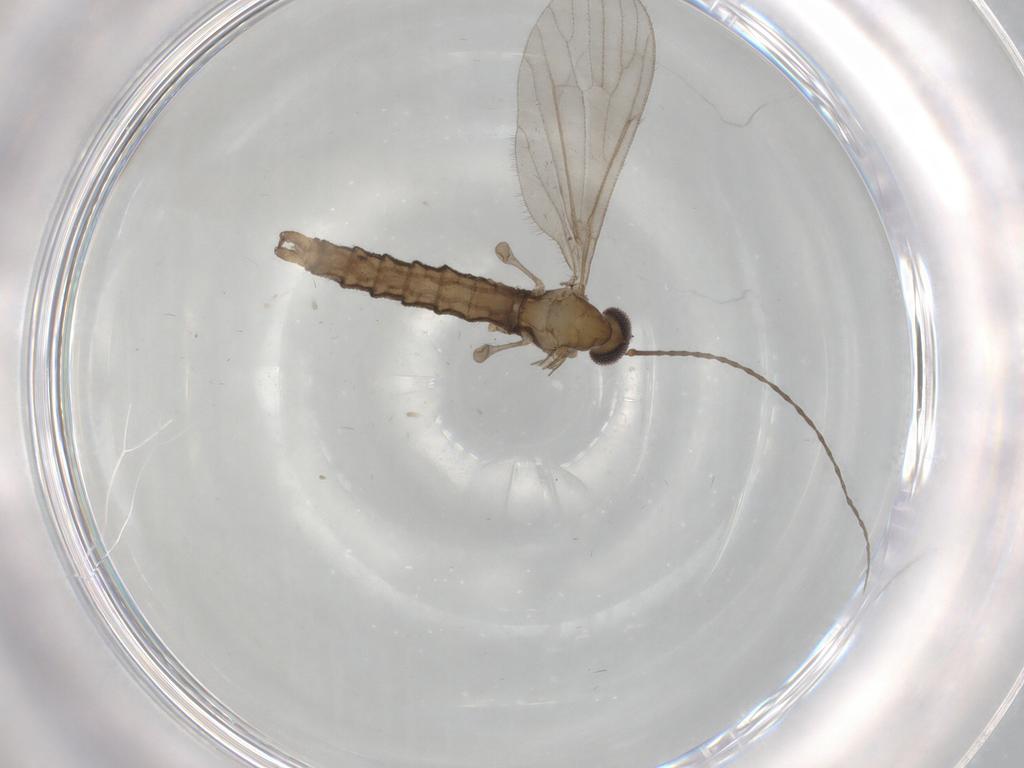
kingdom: Animalia
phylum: Arthropoda
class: Insecta
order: Diptera
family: Limoniidae
